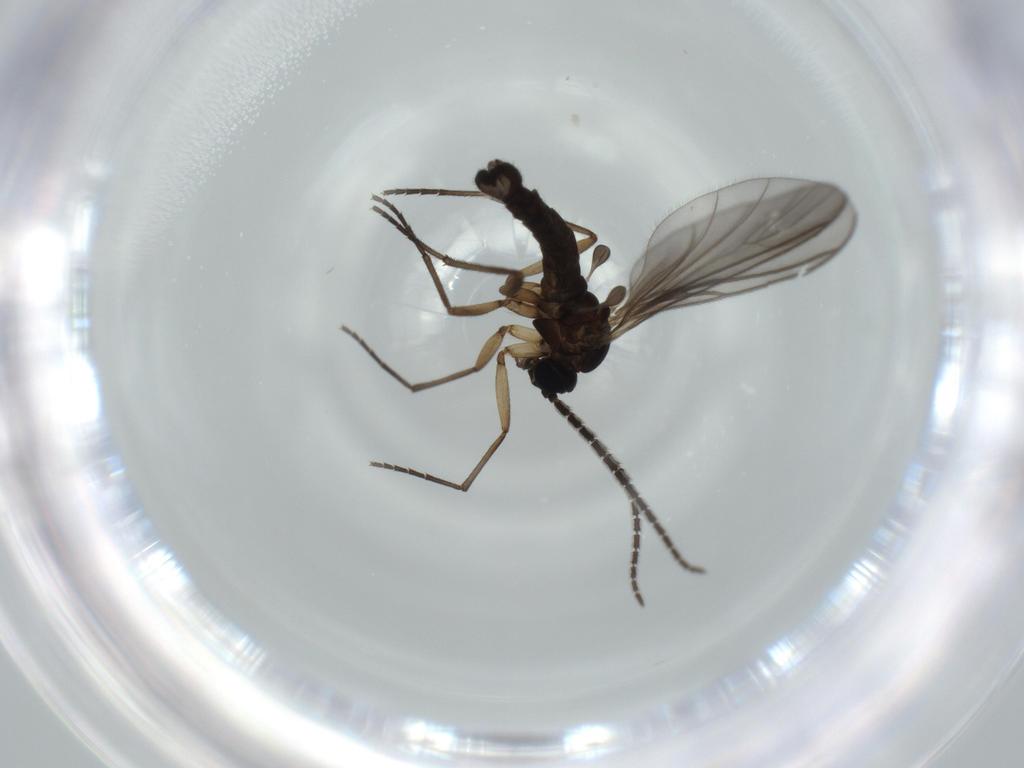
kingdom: Animalia
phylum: Arthropoda
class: Insecta
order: Diptera
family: Sciaridae
